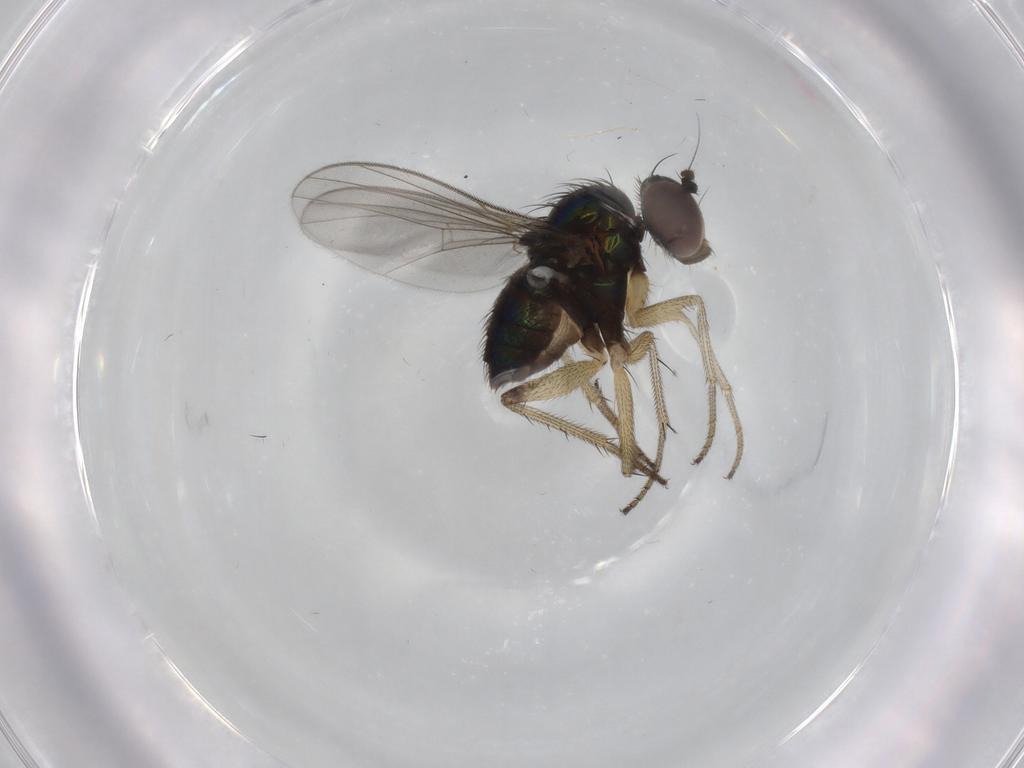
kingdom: Animalia
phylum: Arthropoda
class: Insecta
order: Diptera
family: Dolichopodidae
